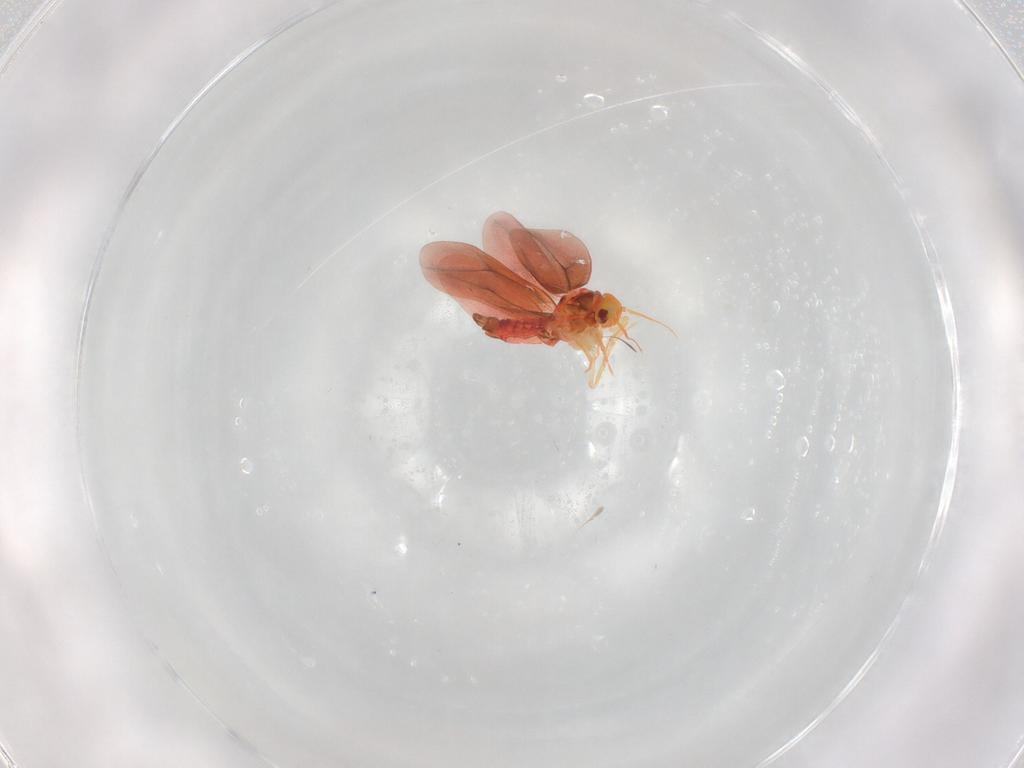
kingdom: Animalia
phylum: Arthropoda
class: Insecta
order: Hemiptera
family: Aleyrodidae
